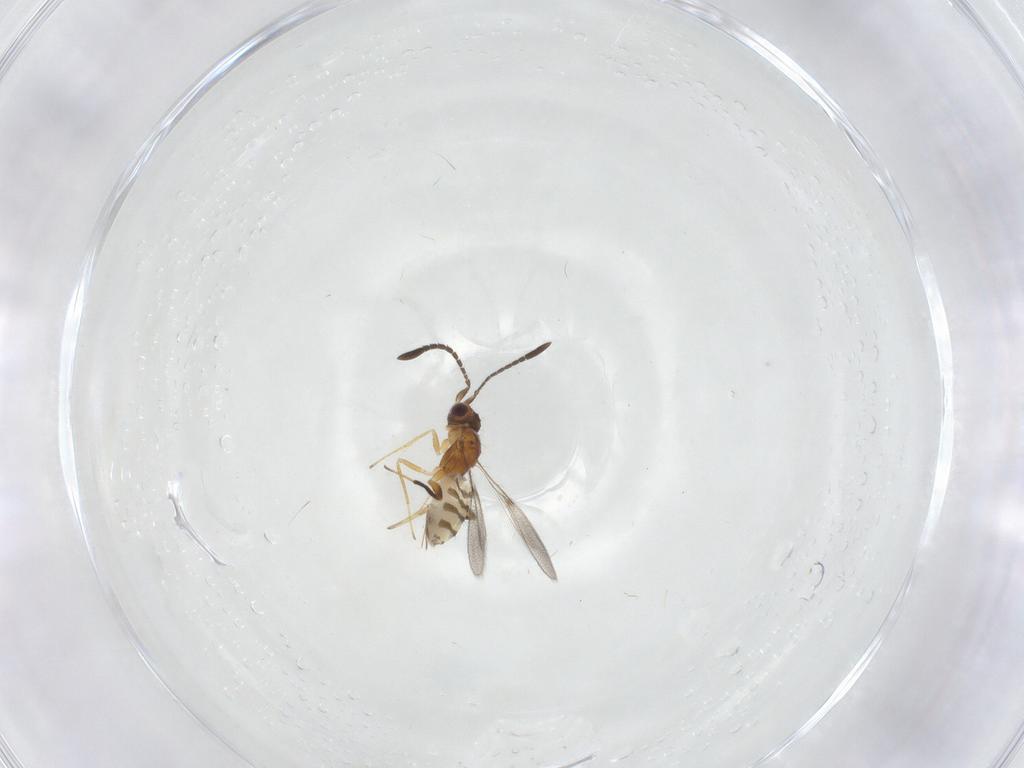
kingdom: Animalia
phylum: Arthropoda
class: Insecta
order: Hymenoptera
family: Mymaridae
